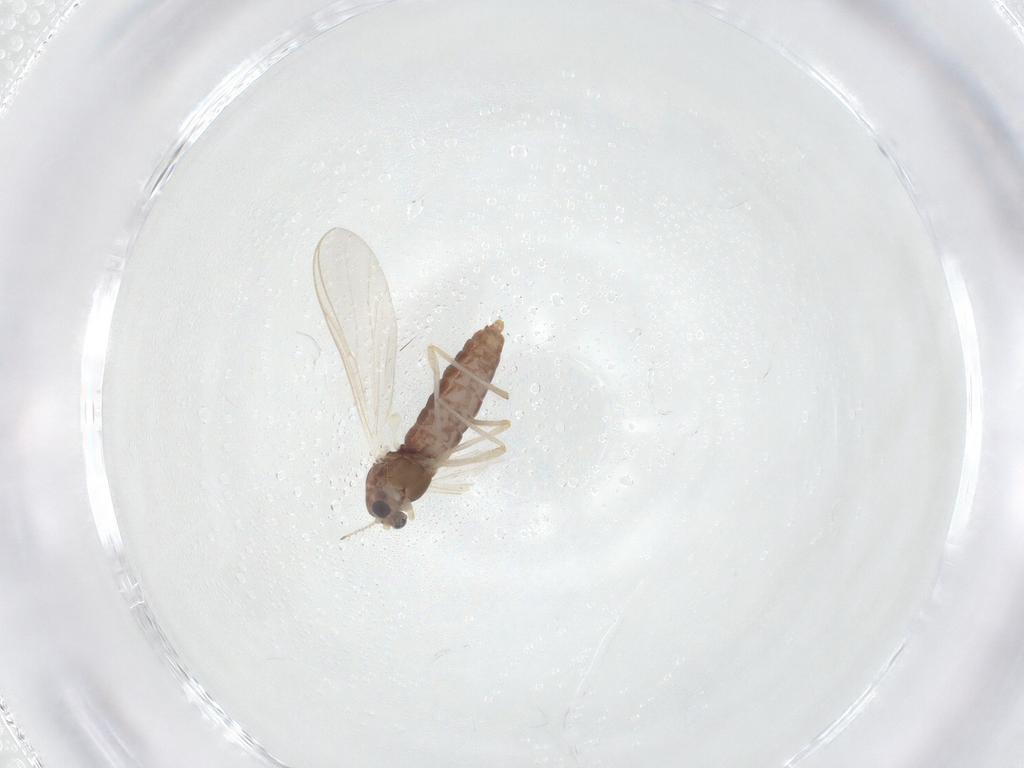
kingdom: Animalia
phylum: Arthropoda
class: Insecta
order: Diptera
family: Chironomidae
